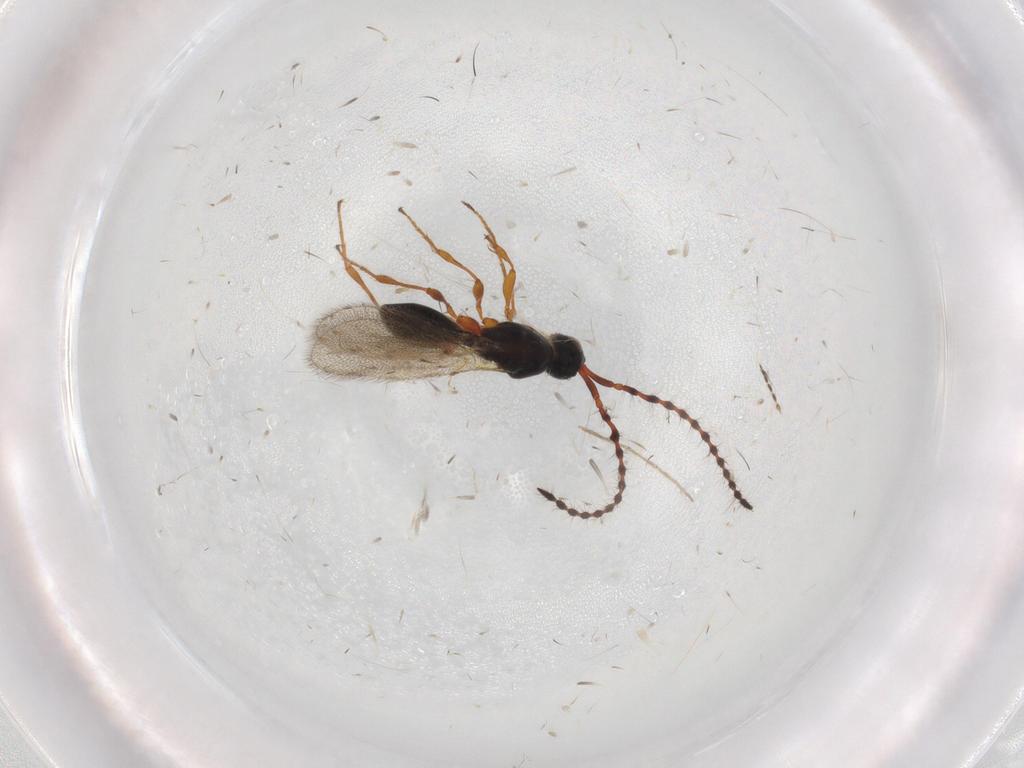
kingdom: Animalia
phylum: Arthropoda
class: Insecta
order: Hymenoptera
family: Diapriidae
